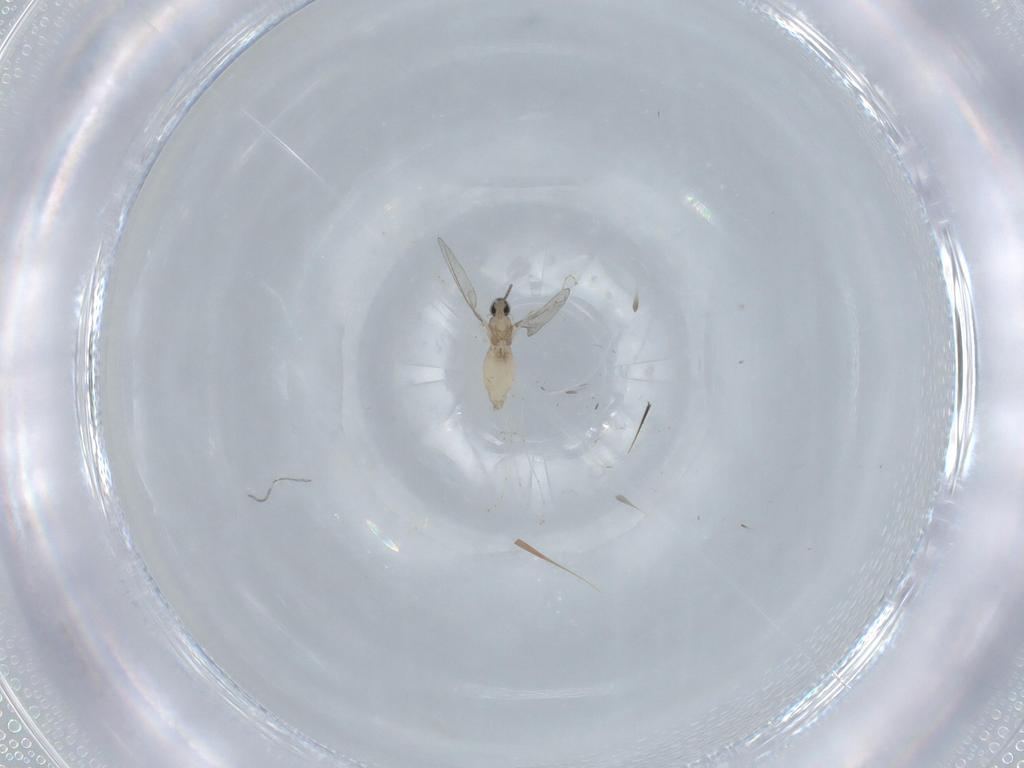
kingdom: Animalia
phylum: Arthropoda
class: Insecta
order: Diptera
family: Cecidomyiidae
